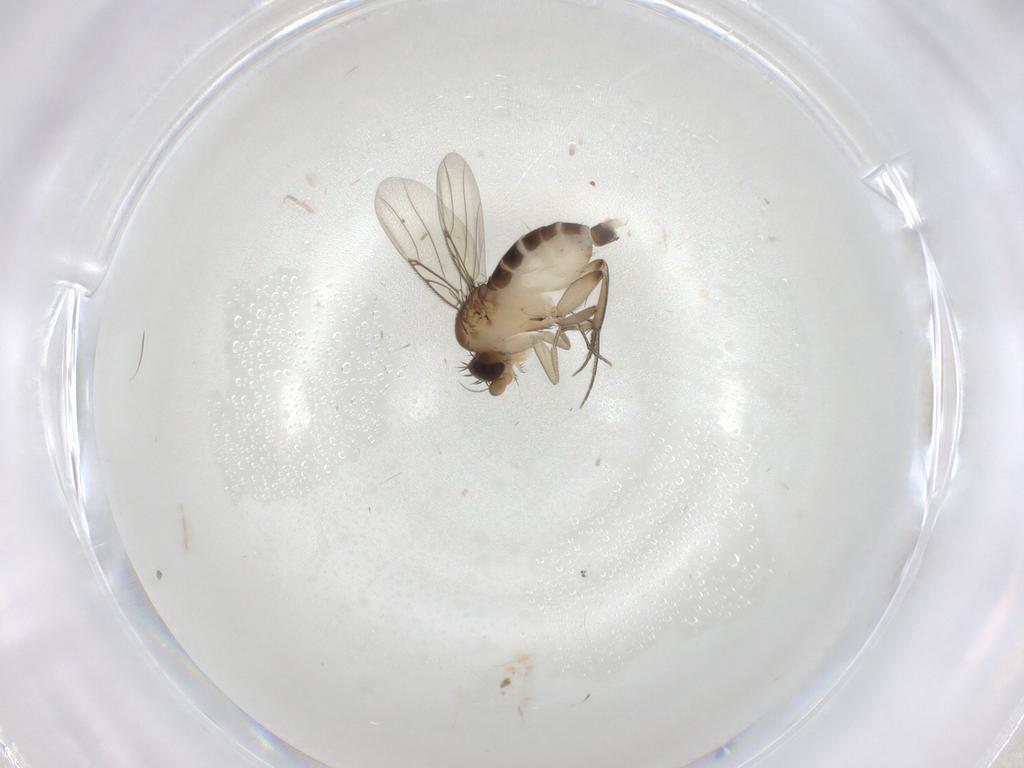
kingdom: Animalia
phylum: Arthropoda
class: Insecta
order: Diptera
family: Phoridae
